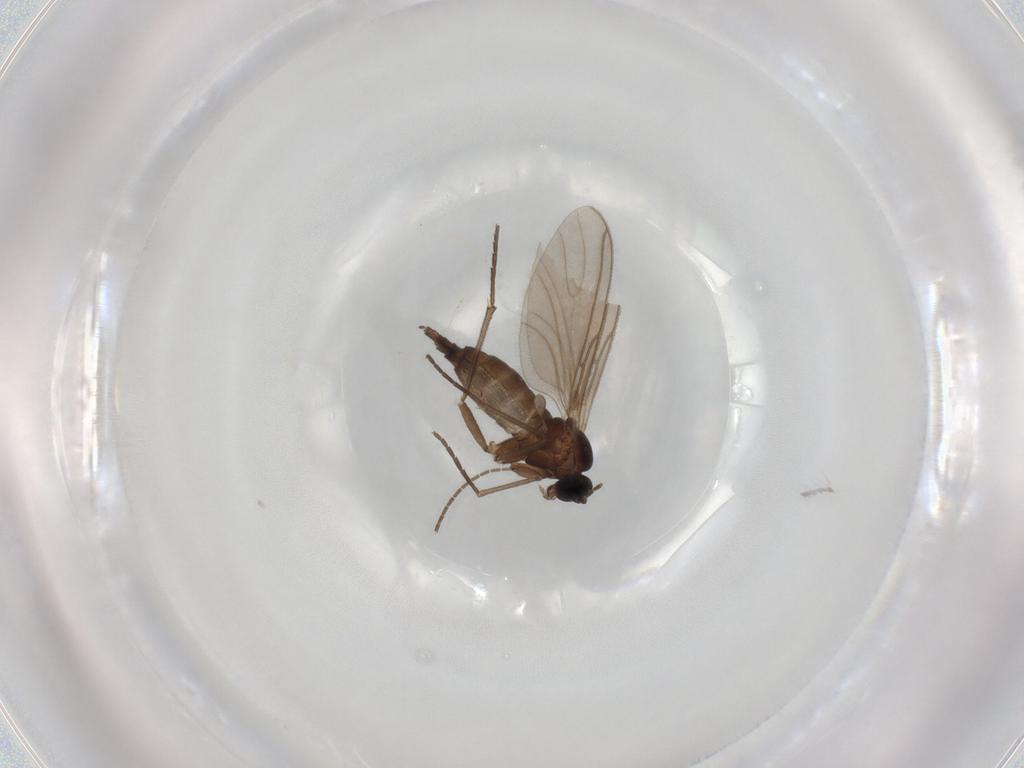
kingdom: Animalia
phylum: Arthropoda
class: Insecta
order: Diptera
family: Sciaridae
